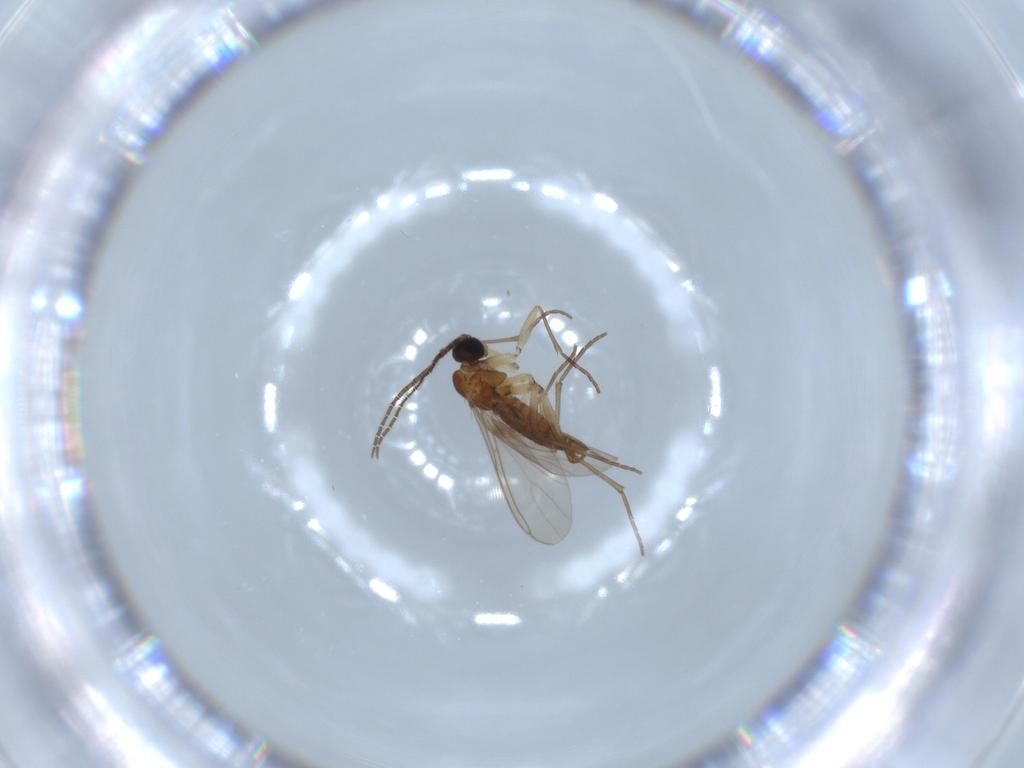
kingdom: Animalia
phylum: Arthropoda
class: Insecta
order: Diptera
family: Sciaridae
